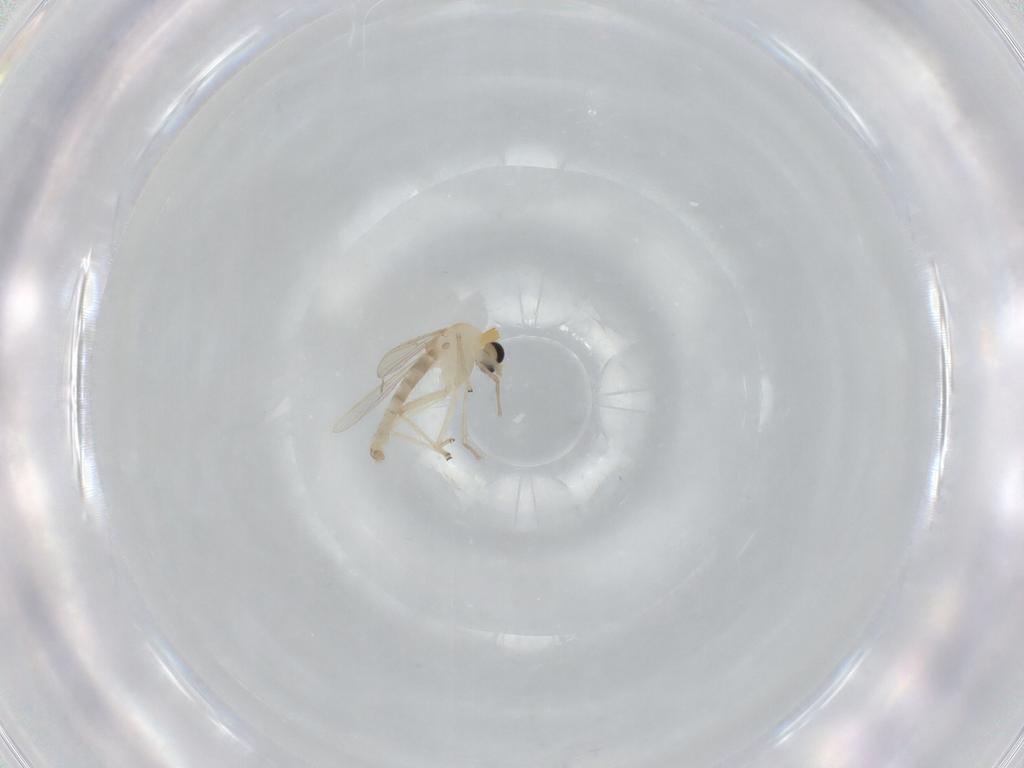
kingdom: Animalia
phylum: Arthropoda
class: Insecta
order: Diptera
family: Chironomidae
